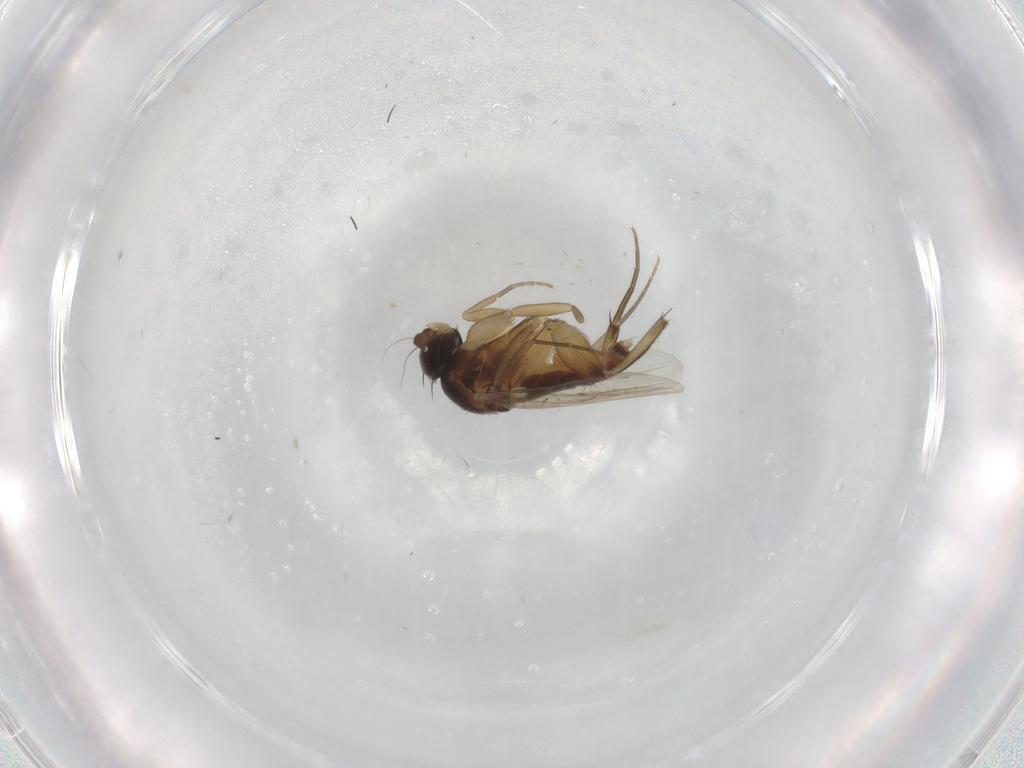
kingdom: Animalia
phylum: Arthropoda
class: Insecta
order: Diptera
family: Phoridae
